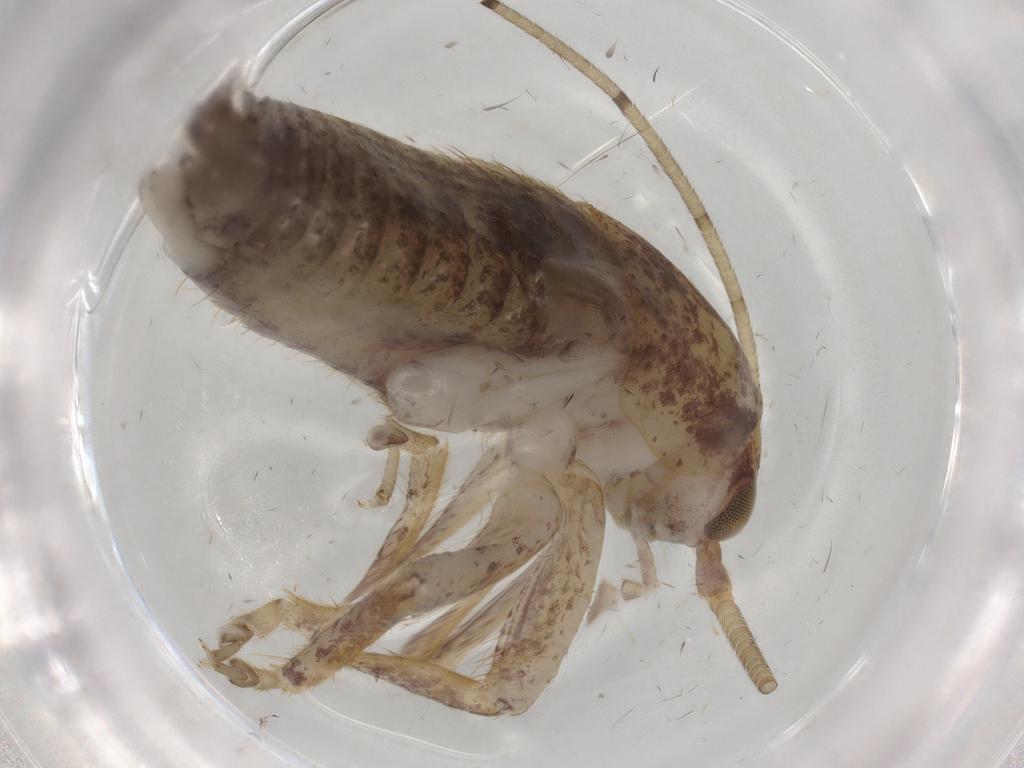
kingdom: Animalia
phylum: Arthropoda
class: Insecta
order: Orthoptera
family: Gryllidae
